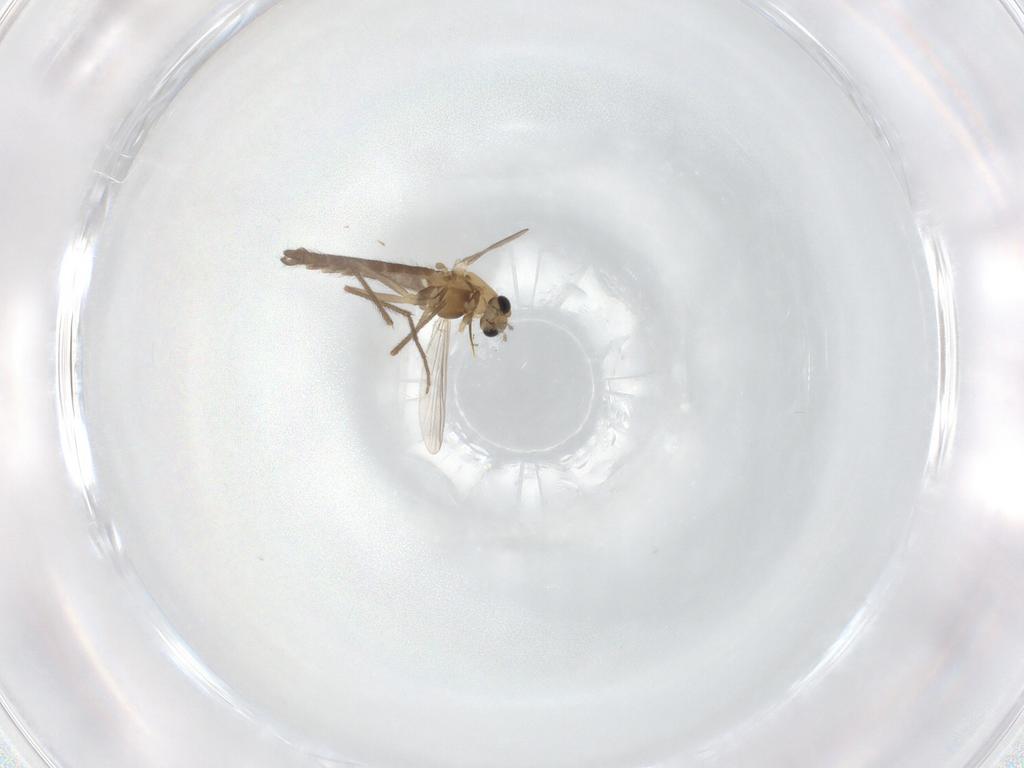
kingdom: Animalia
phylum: Arthropoda
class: Insecta
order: Diptera
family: Chironomidae
